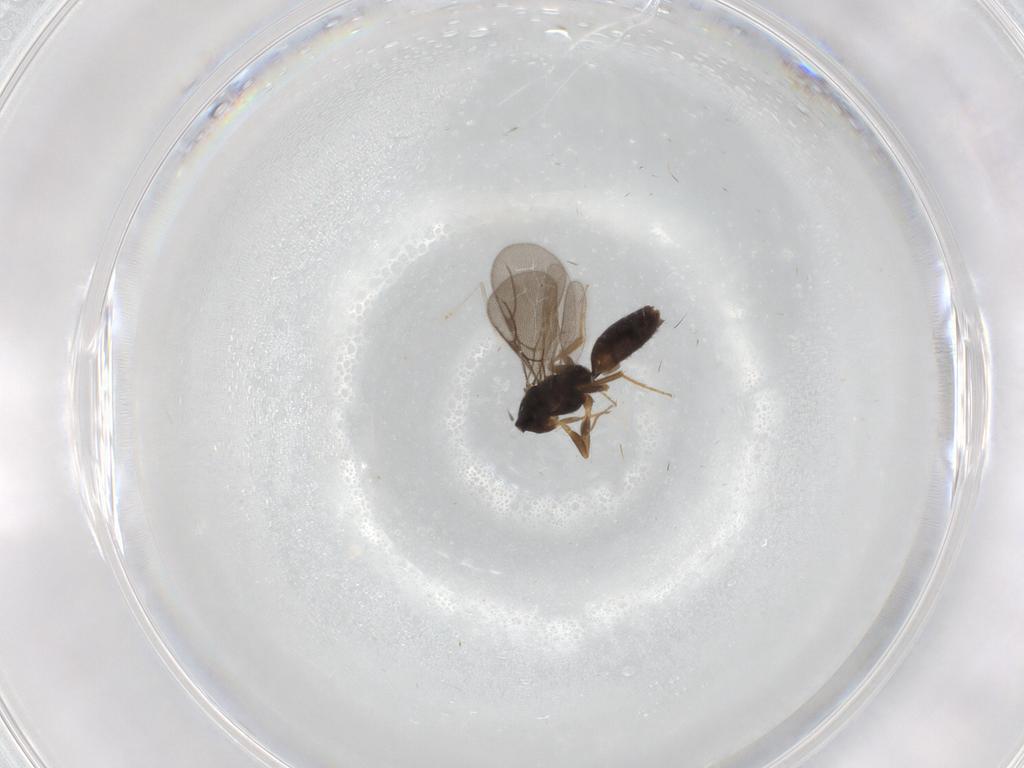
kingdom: Animalia
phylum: Arthropoda
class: Insecta
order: Hymenoptera
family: Bethylidae
